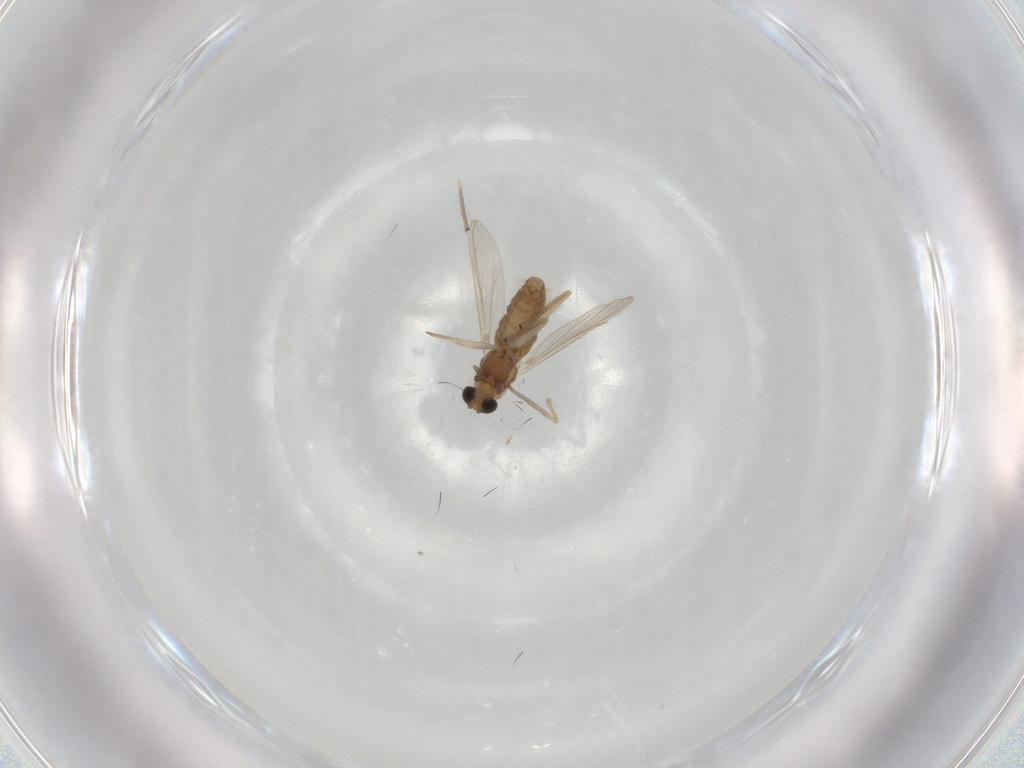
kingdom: Animalia
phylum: Arthropoda
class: Insecta
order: Diptera
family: Chironomidae
